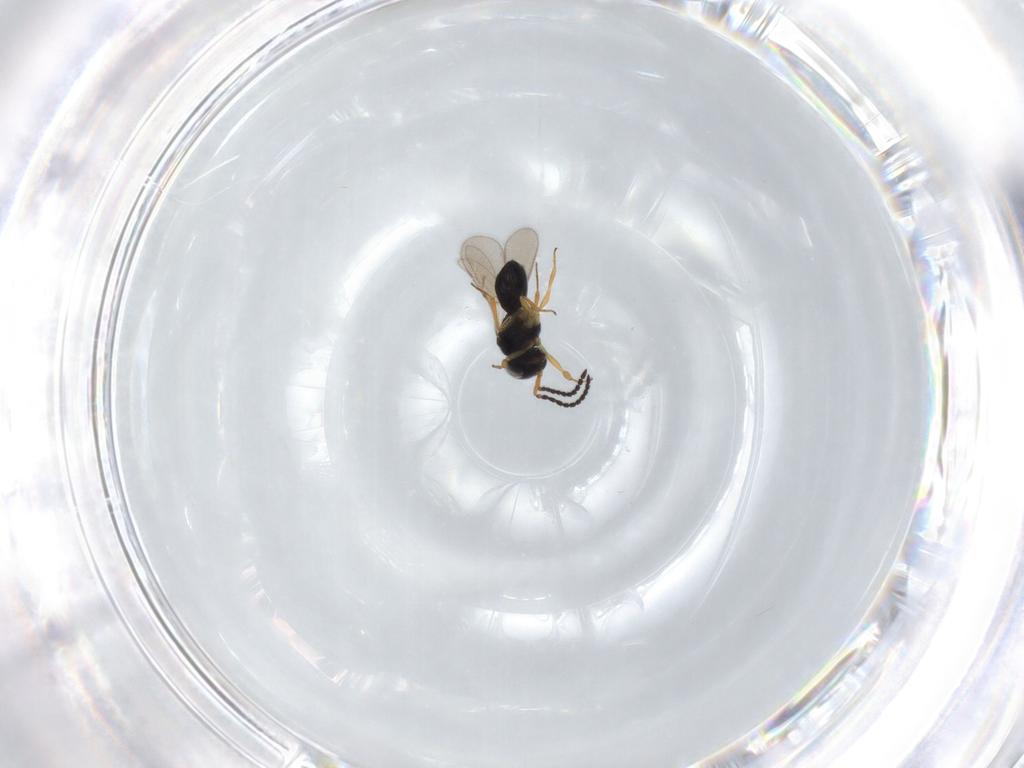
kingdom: Animalia
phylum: Arthropoda
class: Insecta
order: Hymenoptera
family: Scelionidae
